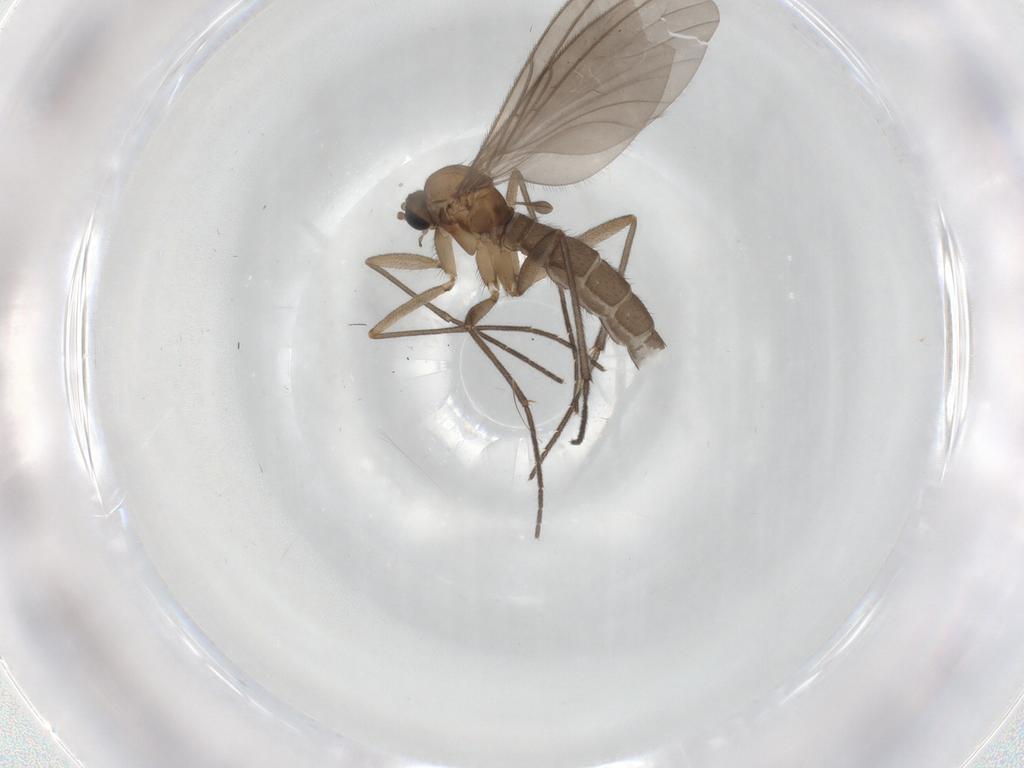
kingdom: Animalia
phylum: Arthropoda
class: Insecta
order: Diptera
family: Sciaridae
